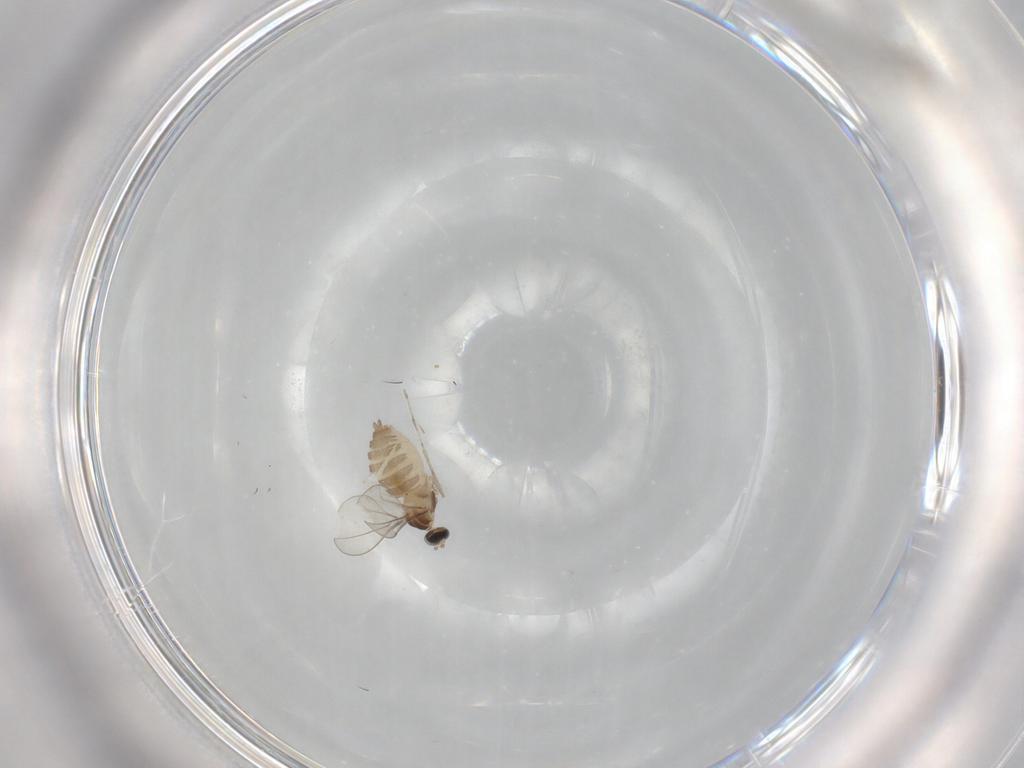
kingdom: Animalia
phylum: Arthropoda
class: Insecta
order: Diptera
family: Cecidomyiidae
